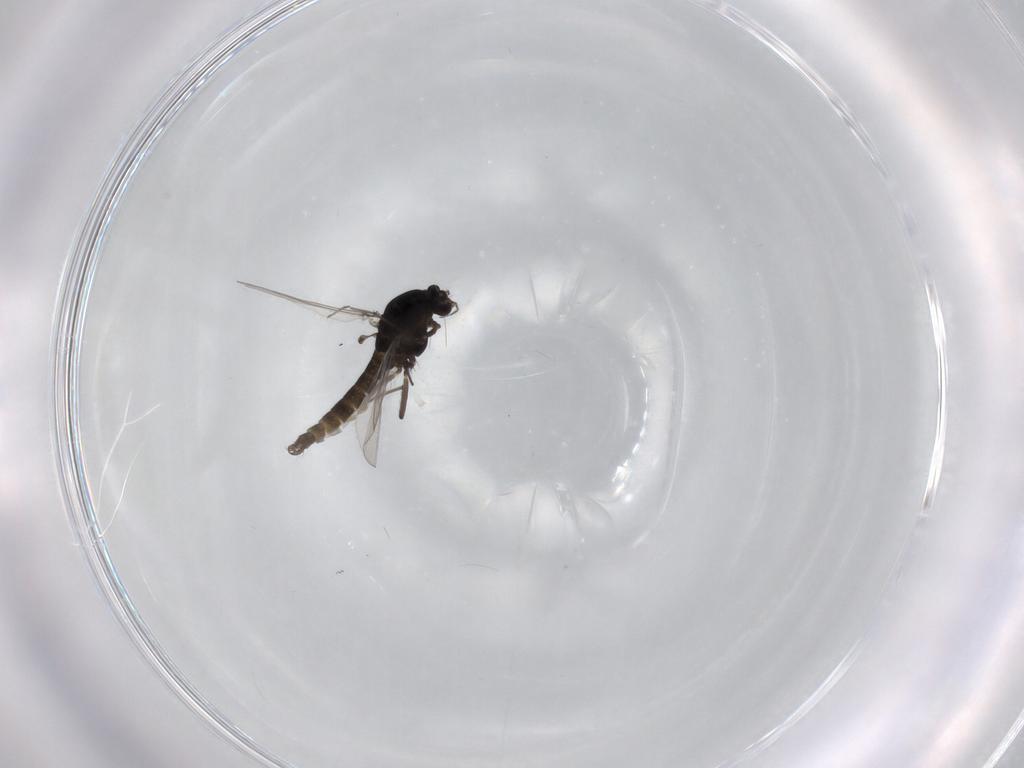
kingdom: Animalia
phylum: Arthropoda
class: Insecta
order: Diptera
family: Chironomidae
